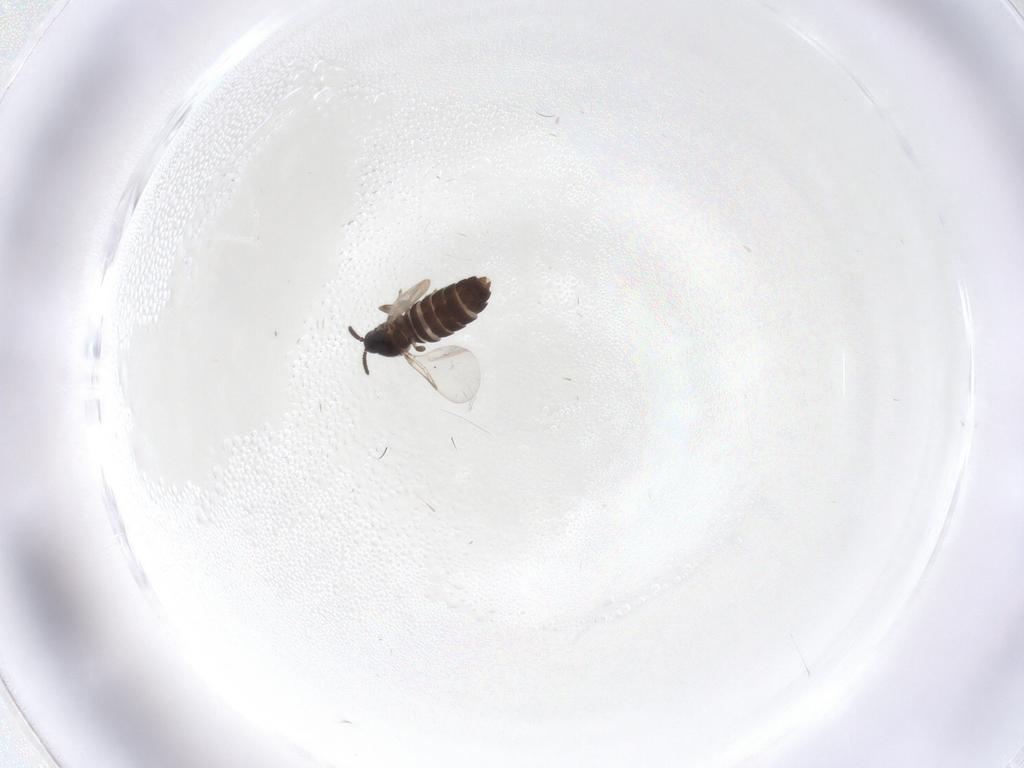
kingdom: Animalia
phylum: Arthropoda
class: Insecta
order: Diptera
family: Scatopsidae
